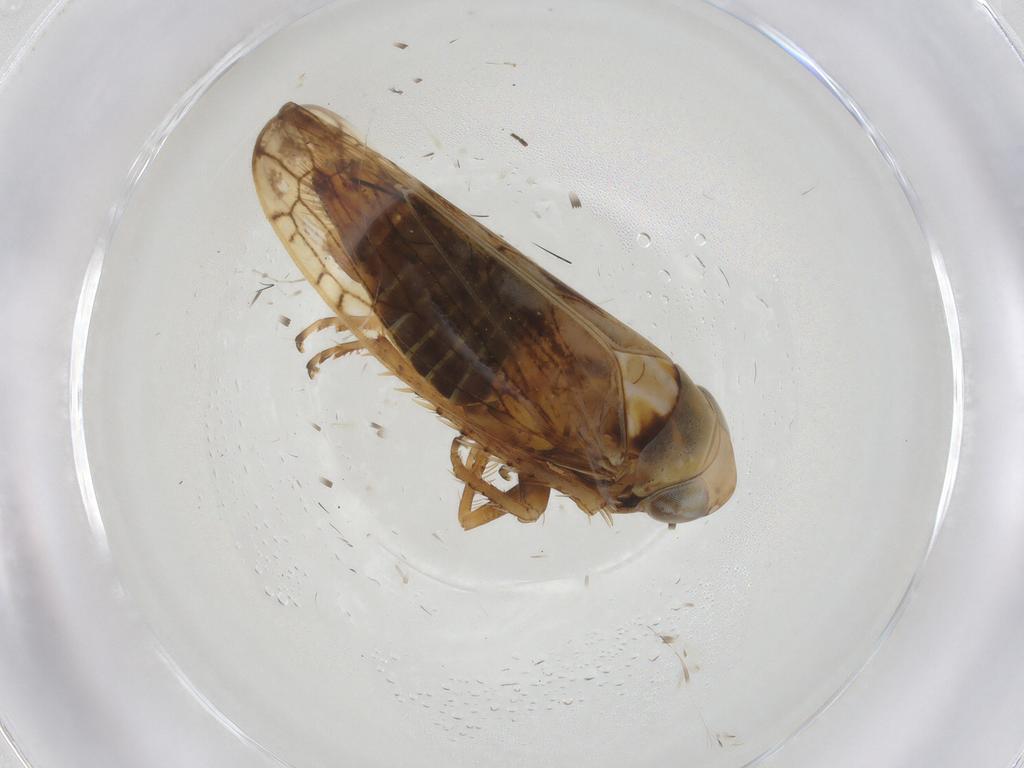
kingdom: Animalia
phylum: Arthropoda
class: Insecta
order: Hemiptera
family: Cicadellidae
